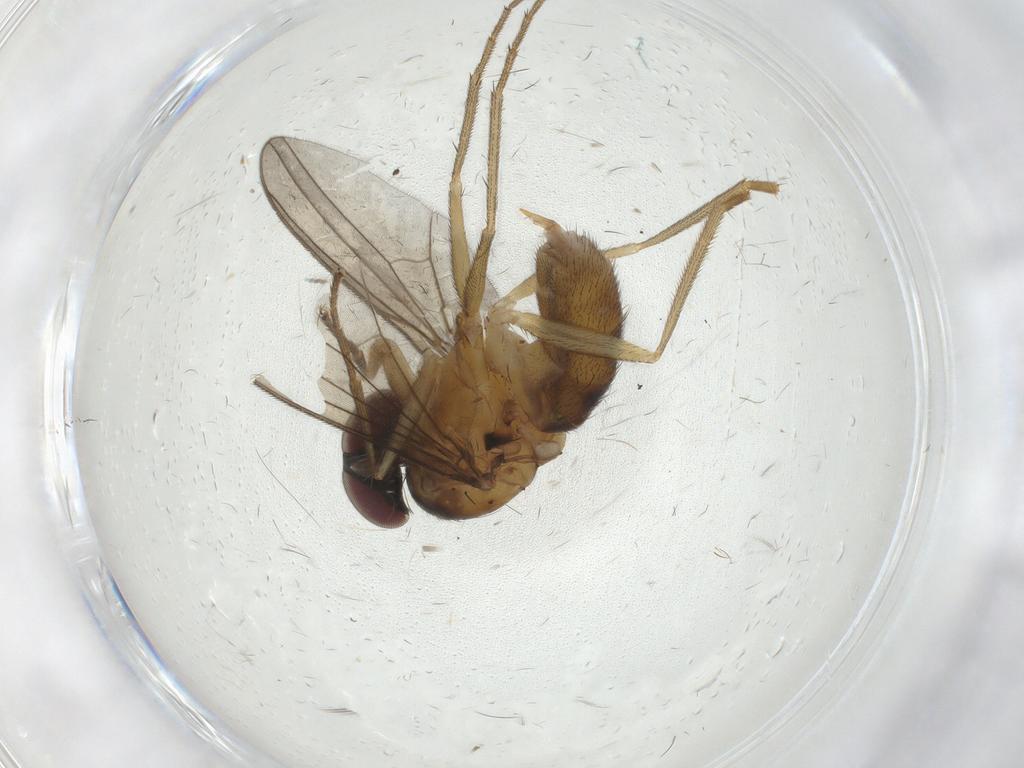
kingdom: Animalia
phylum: Arthropoda
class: Insecta
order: Diptera
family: Dolichopodidae
